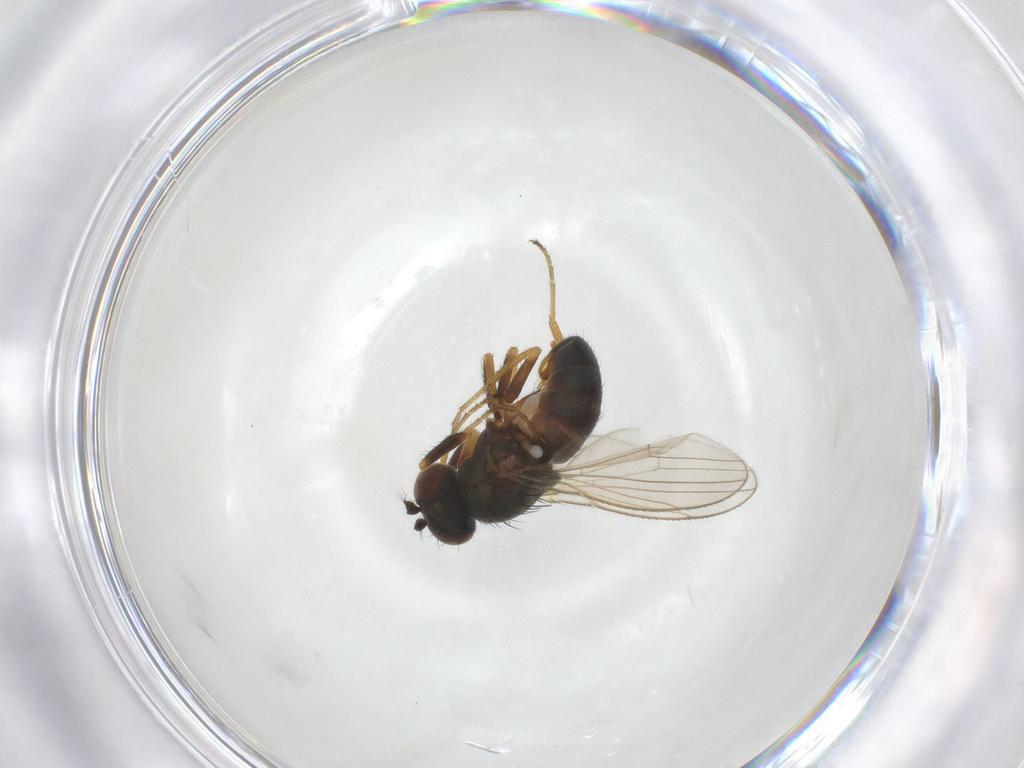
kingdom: Animalia
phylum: Arthropoda
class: Insecta
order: Diptera
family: Ephydridae
